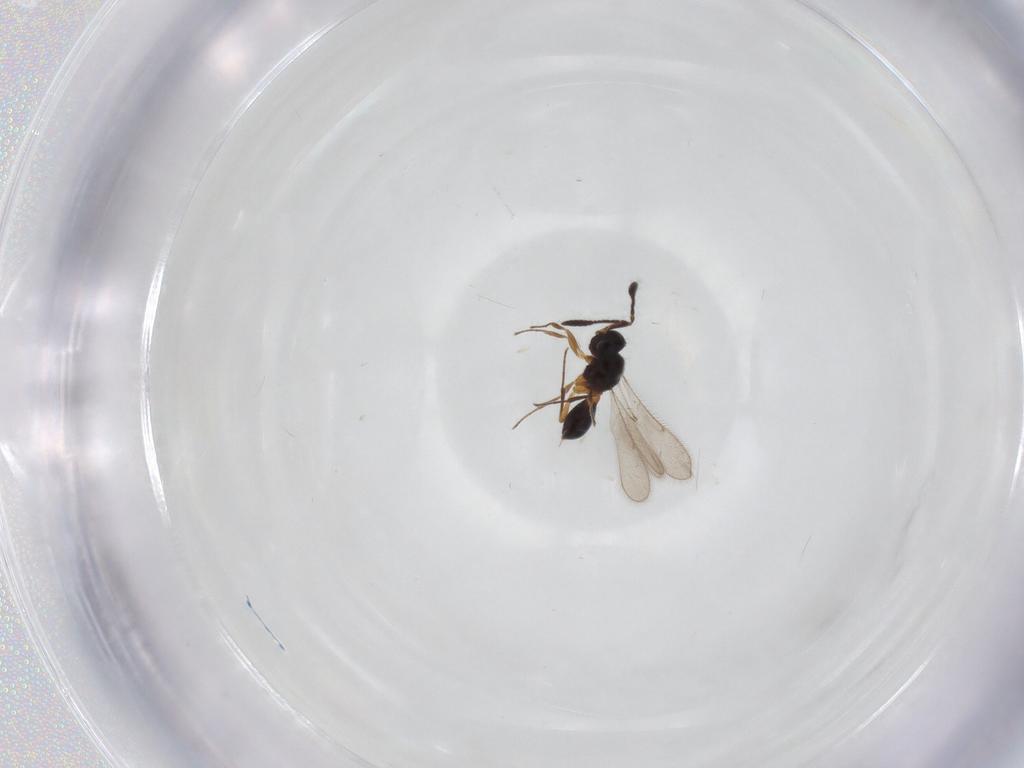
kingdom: Animalia
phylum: Arthropoda
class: Insecta
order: Hymenoptera
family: Scelionidae
